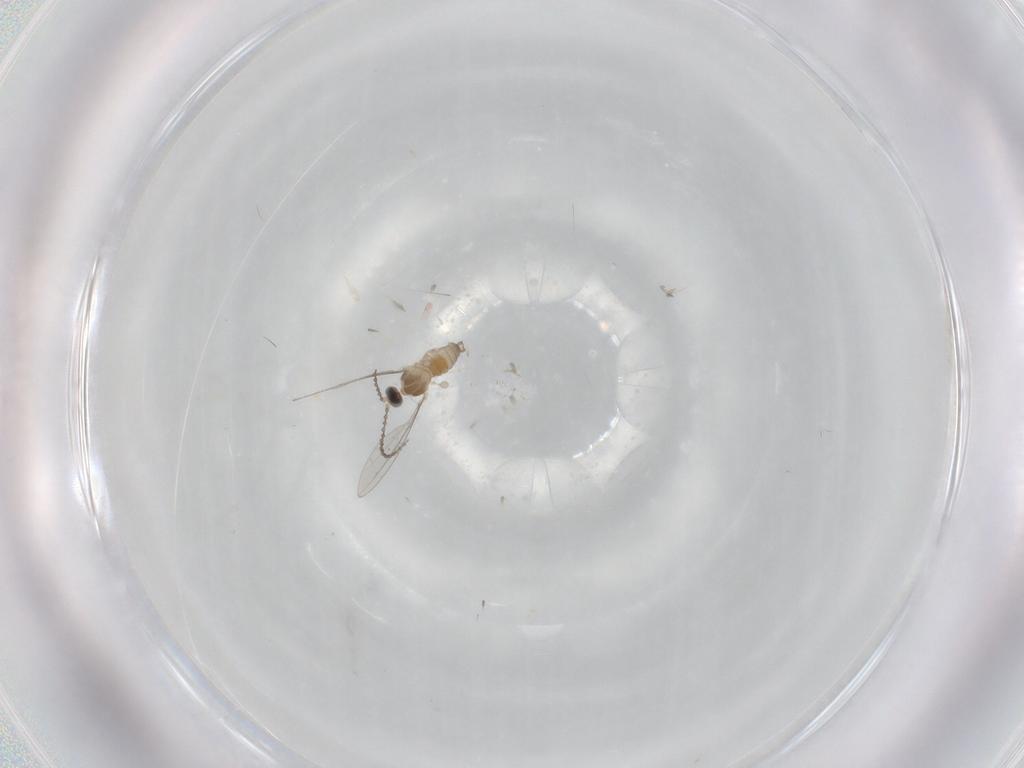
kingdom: Animalia
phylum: Arthropoda
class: Insecta
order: Diptera
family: Cecidomyiidae
